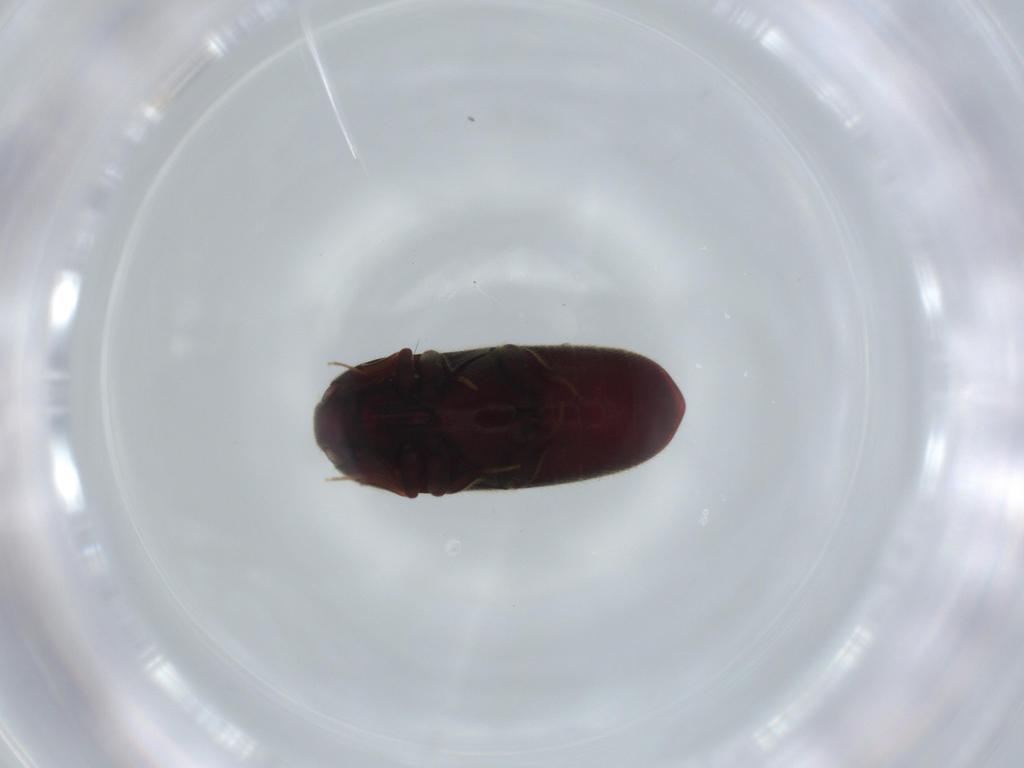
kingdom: Animalia
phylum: Arthropoda
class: Insecta
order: Coleoptera
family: Throscidae
